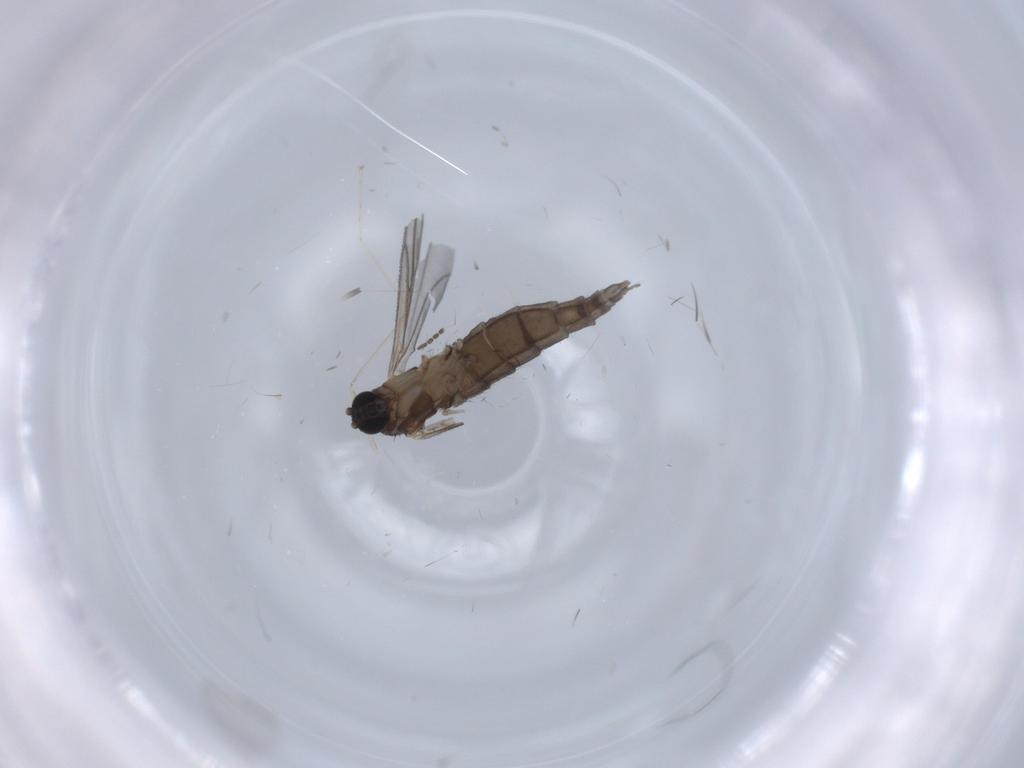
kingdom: Animalia
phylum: Arthropoda
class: Insecta
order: Diptera
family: Cecidomyiidae
